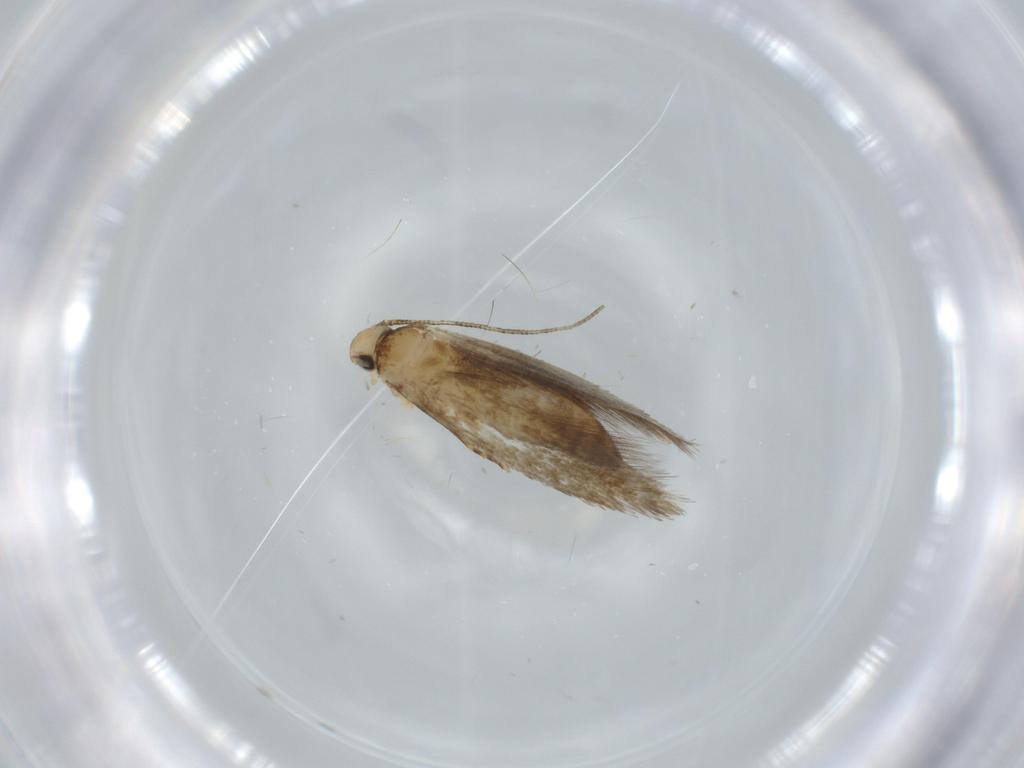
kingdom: Animalia
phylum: Arthropoda
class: Insecta
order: Lepidoptera
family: Tineidae
